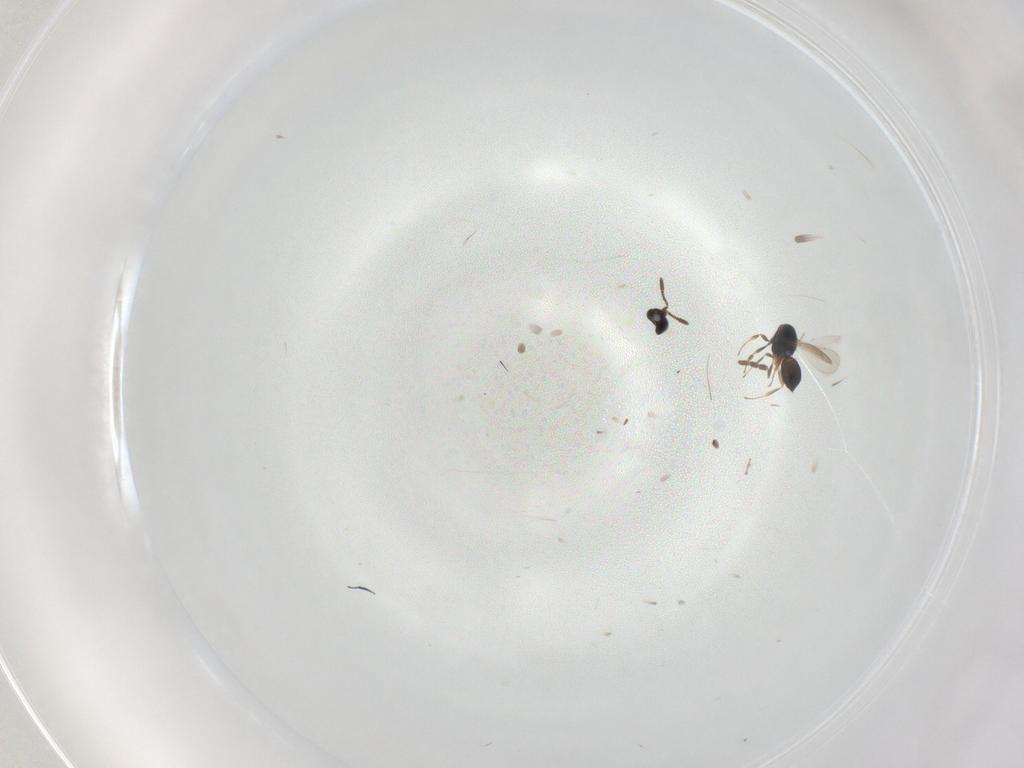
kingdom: Animalia
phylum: Arthropoda
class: Insecta
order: Hymenoptera
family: Scelionidae
